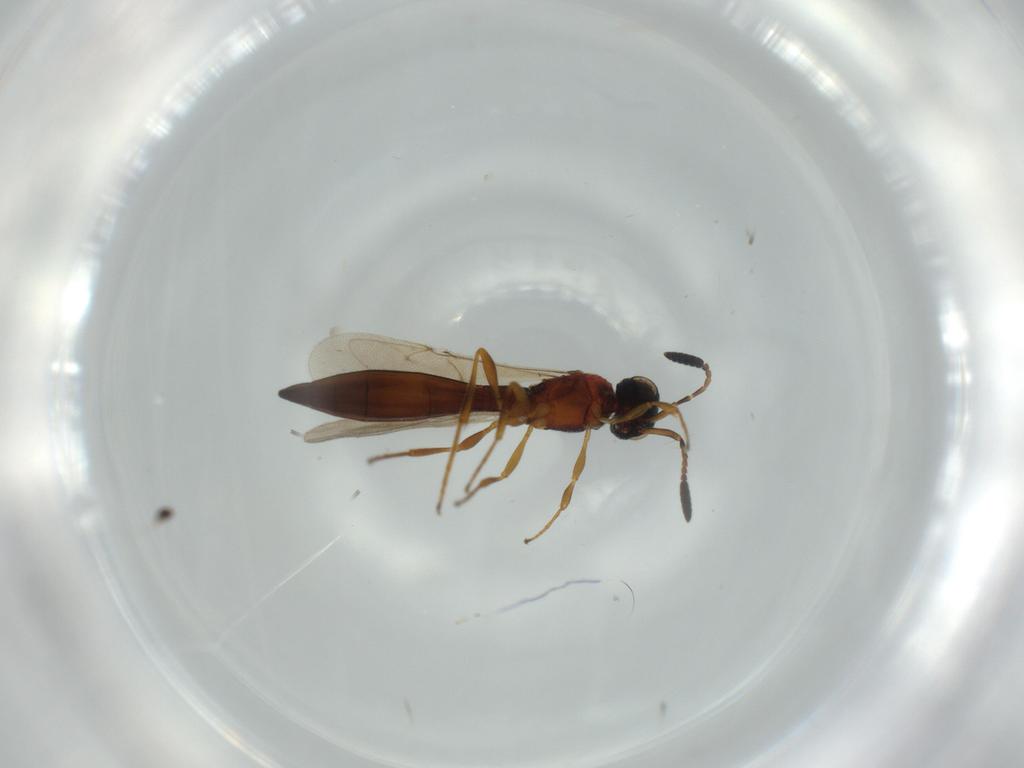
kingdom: Animalia
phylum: Arthropoda
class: Insecta
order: Hymenoptera
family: Scelionidae
